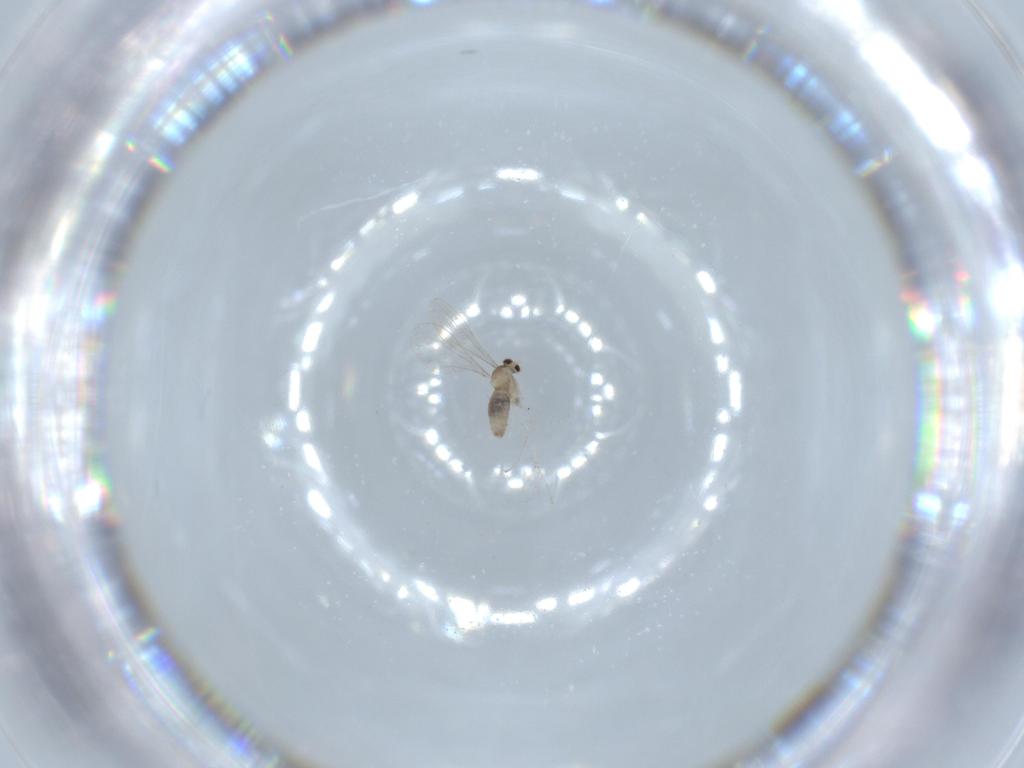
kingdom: Animalia
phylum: Arthropoda
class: Insecta
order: Diptera
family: Cecidomyiidae
